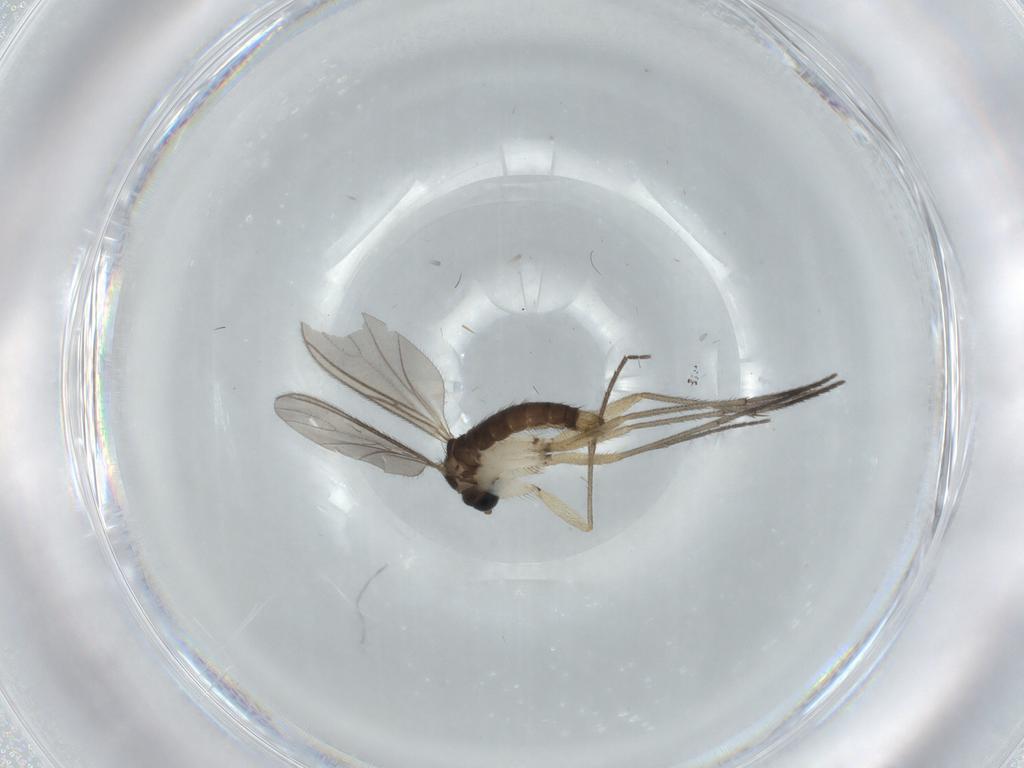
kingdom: Animalia
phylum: Arthropoda
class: Insecta
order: Diptera
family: Sciaridae
